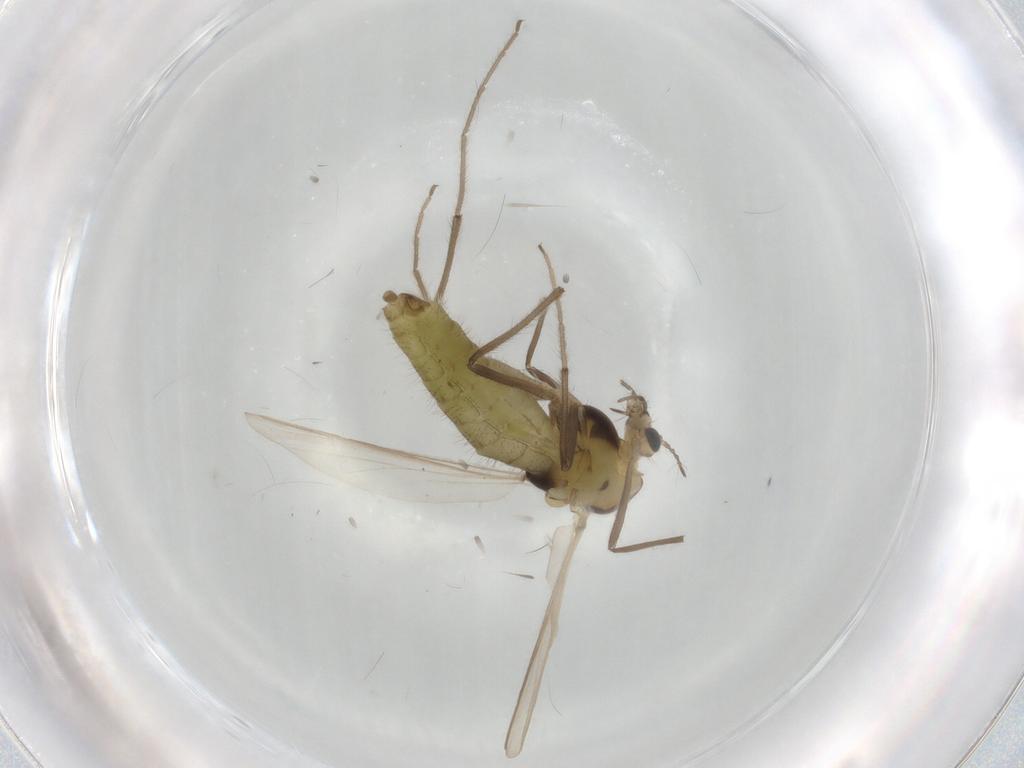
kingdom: Animalia
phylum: Arthropoda
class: Insecta
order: Diptera
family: Chironomidae
